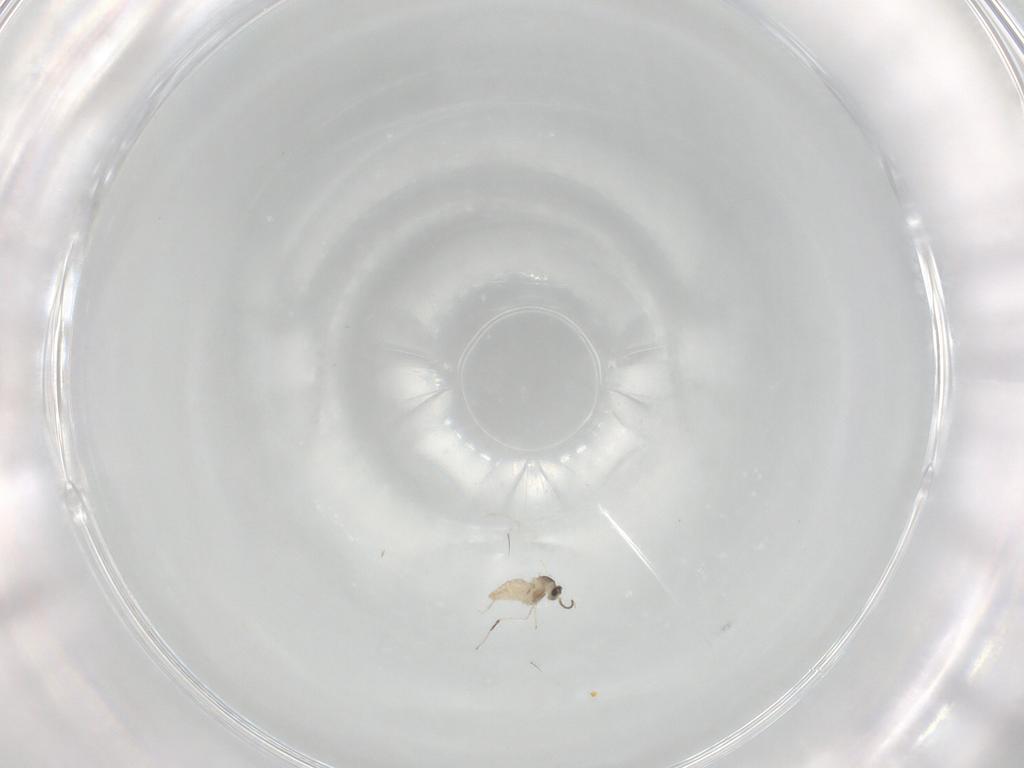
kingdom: Animalia
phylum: Arthropoda
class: Insecta
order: Diptera
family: Cecidomyiidae
